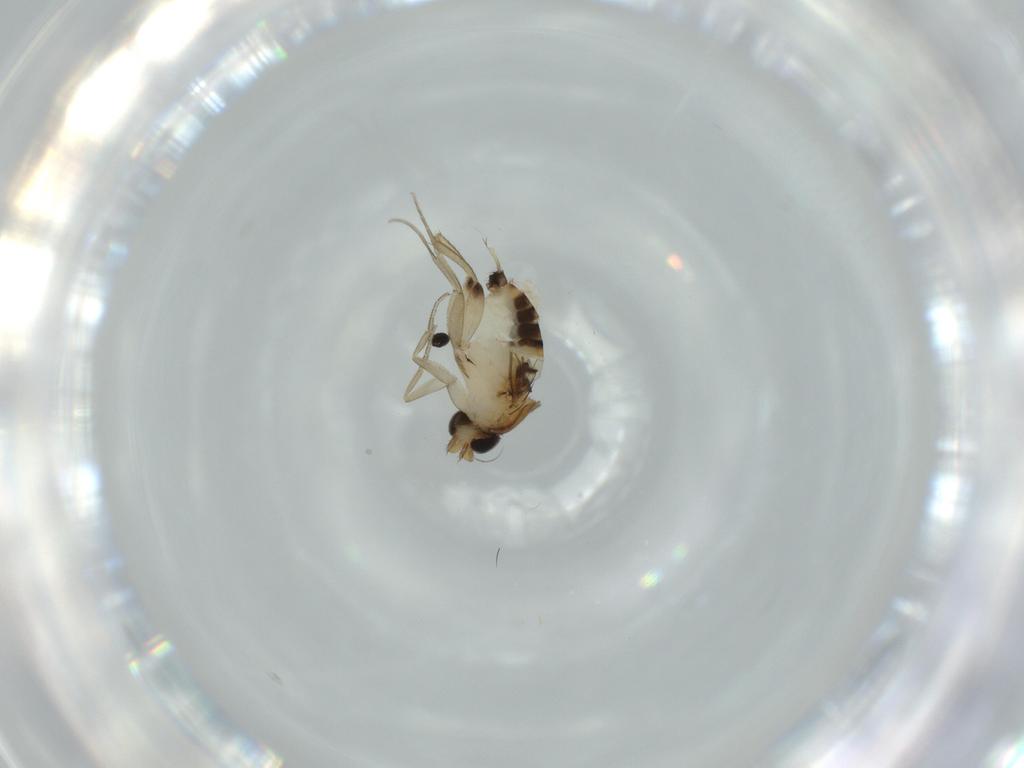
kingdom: Animalia
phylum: Arthropoda
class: Insecta
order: Diptera
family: Phoridae
